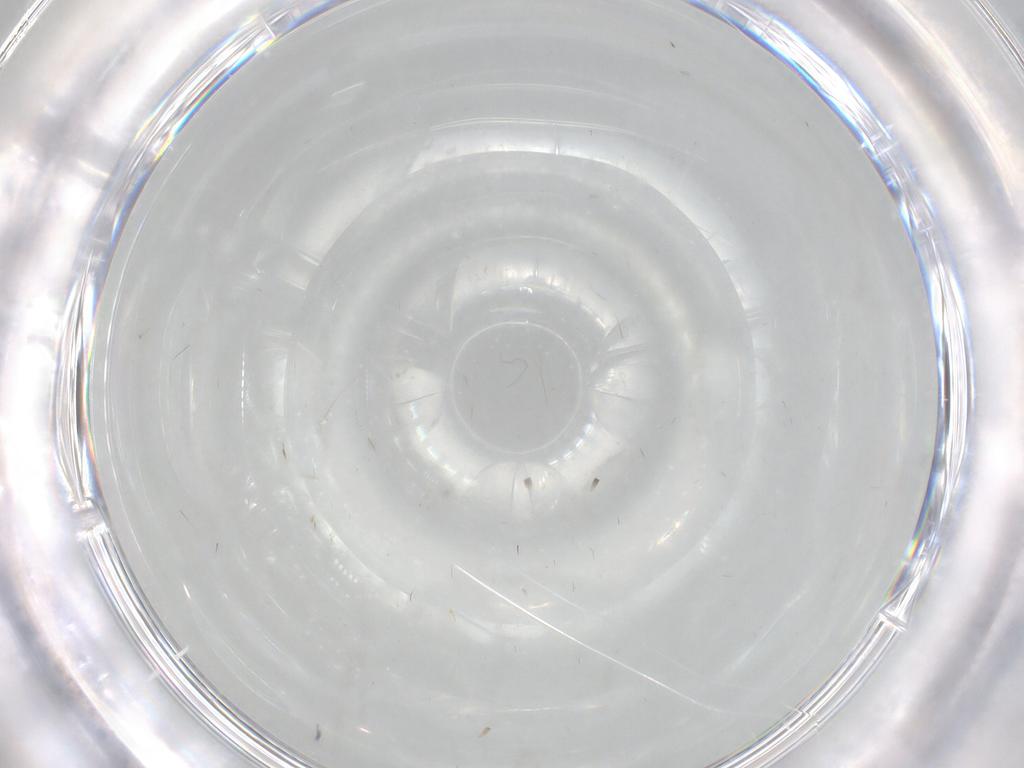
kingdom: Animalia
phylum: Arthropoda
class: Insecta
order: Diptera
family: Cecidomyiidae
